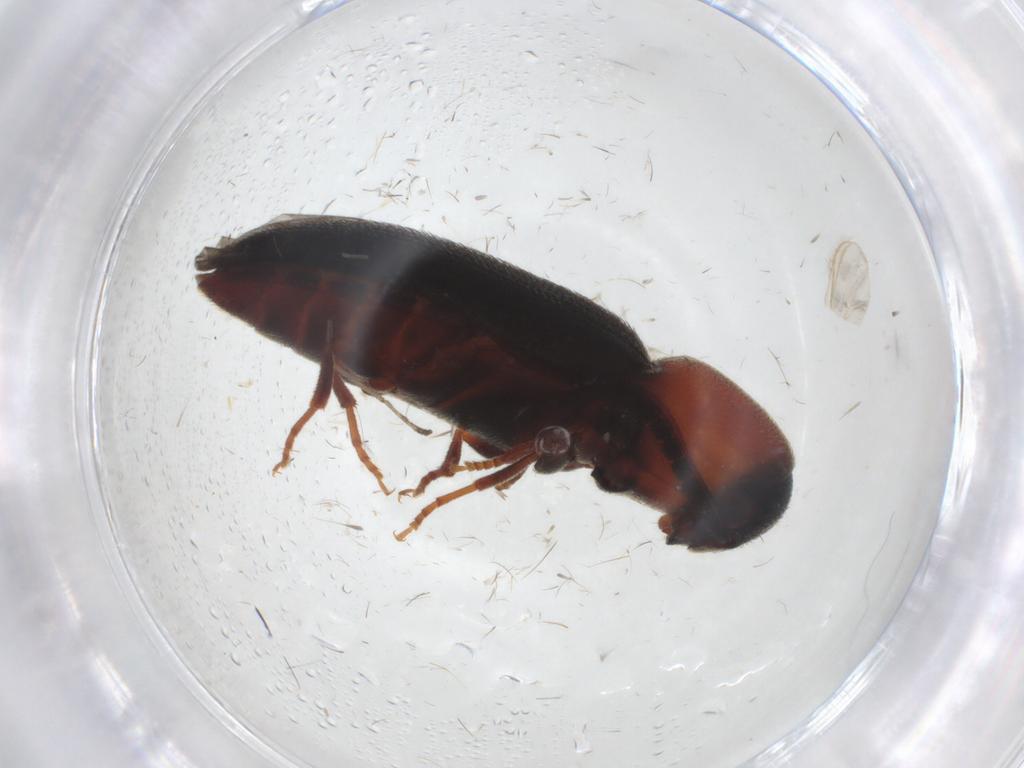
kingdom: Animalia
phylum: Arthropoda
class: Insecta
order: Coleoptera
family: Eucnemidae
